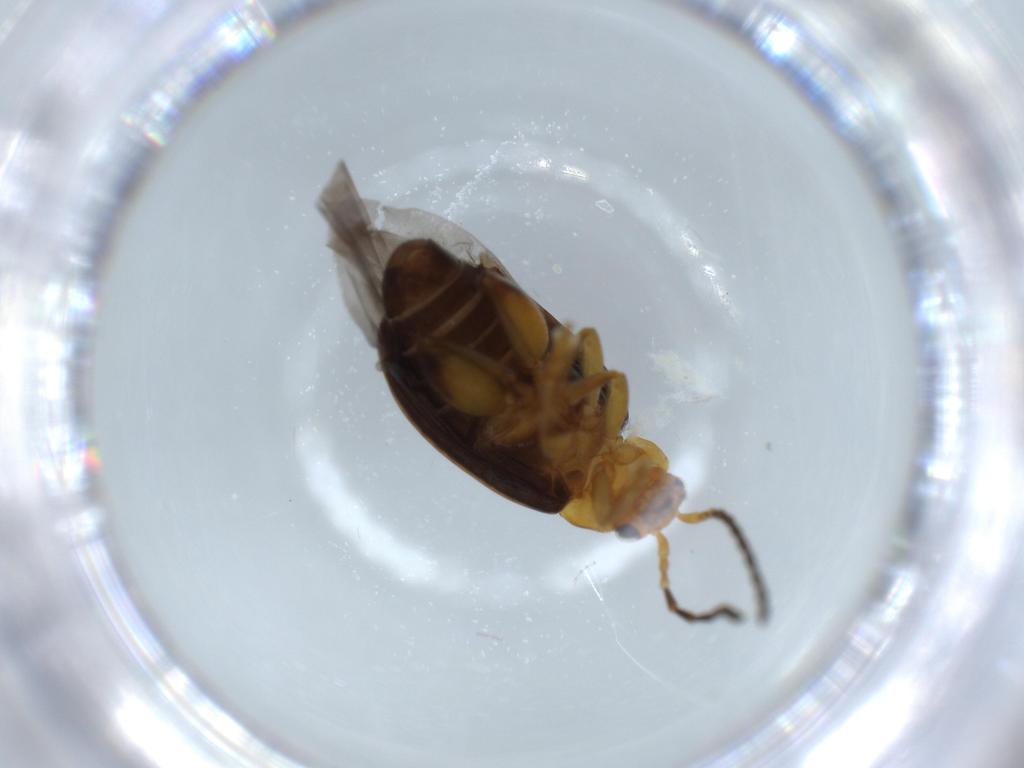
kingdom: Animalia
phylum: Arthropoda
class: Insecta
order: Coleoptera
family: Chrysomelidae
